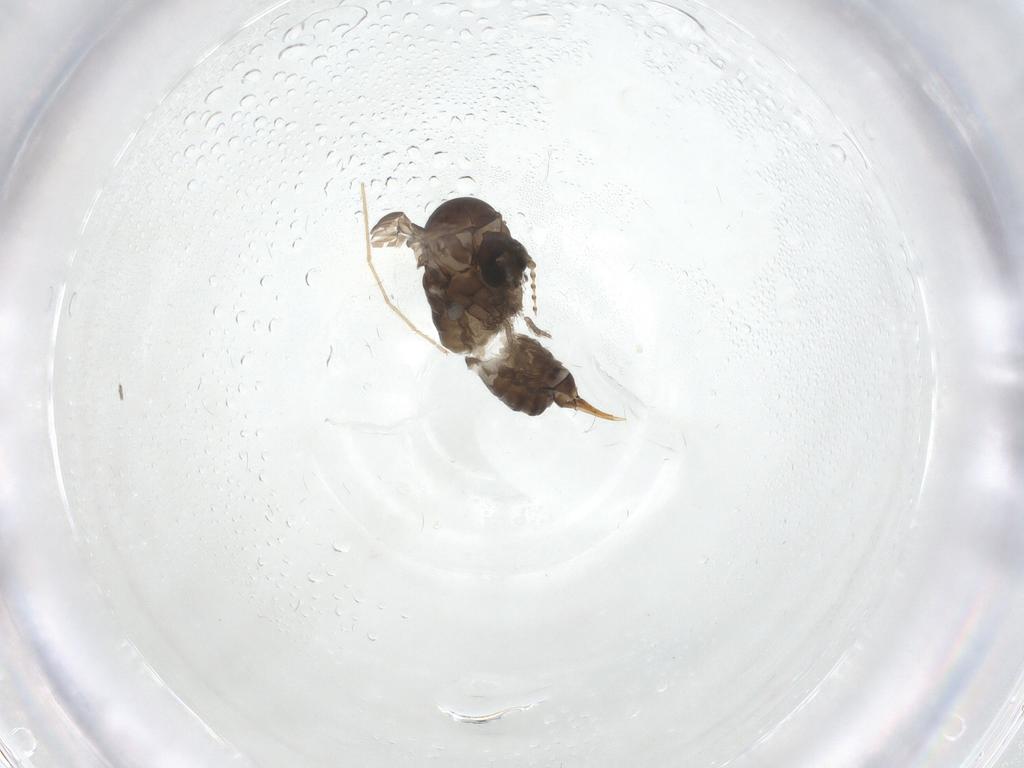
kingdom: Animalia
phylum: Arthropoda
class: Insecta
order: Diptera
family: Psychodidae
